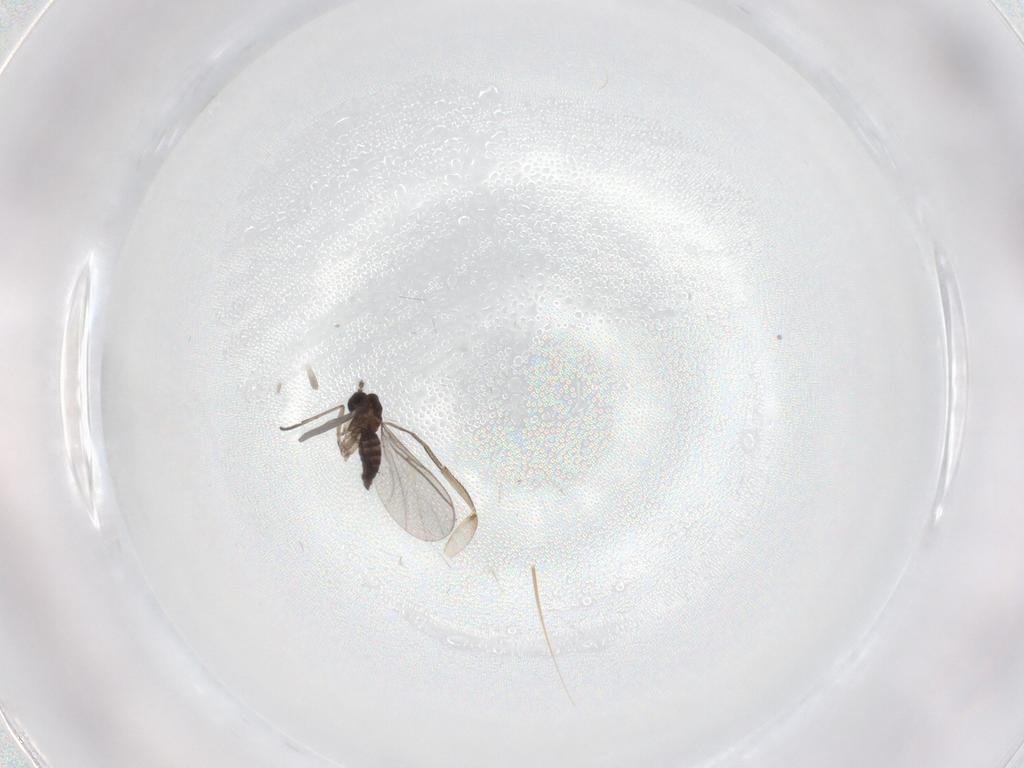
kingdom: Animalia
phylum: Arthropoda
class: Insecta
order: Diptera
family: Phoridae
